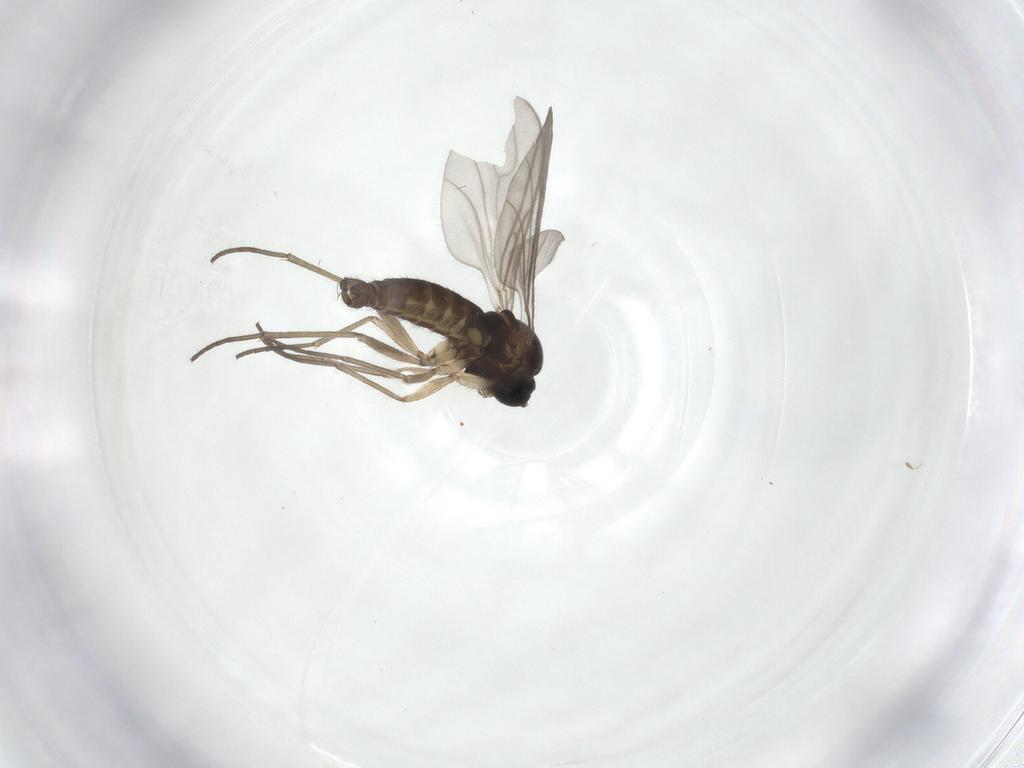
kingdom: Animalia
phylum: Arthropoda
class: Insecta
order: Diptera
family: Sciaridae
